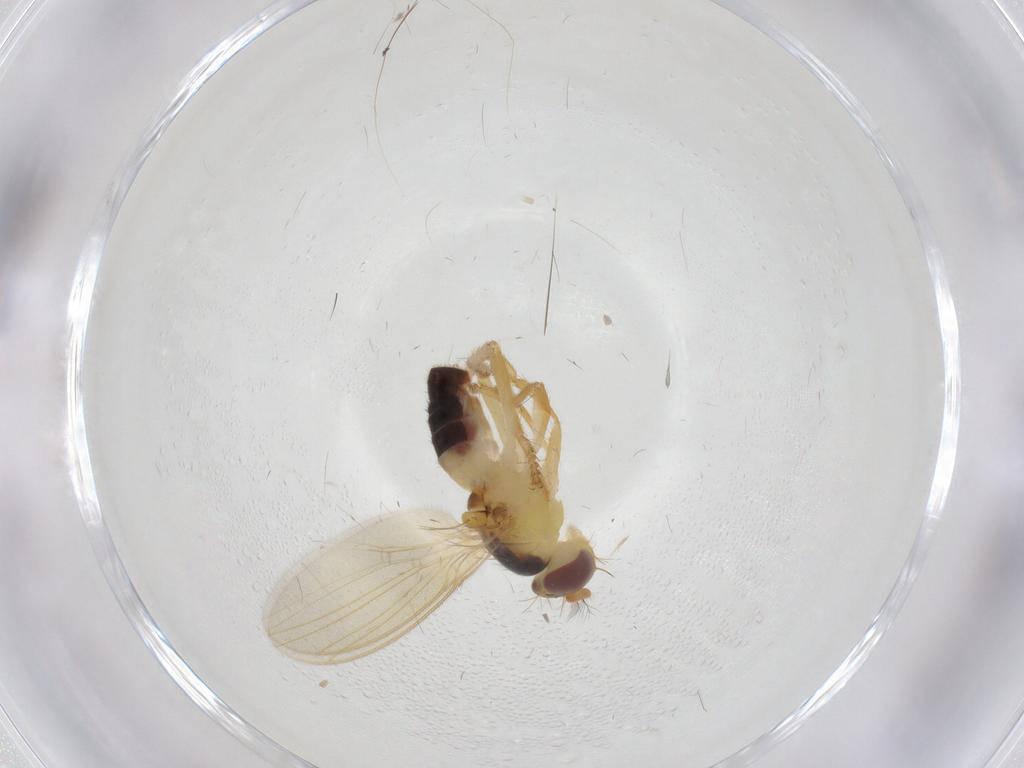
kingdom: Animalia
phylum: Arthropoda
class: Insecta
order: Diptera
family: Periscelididae
